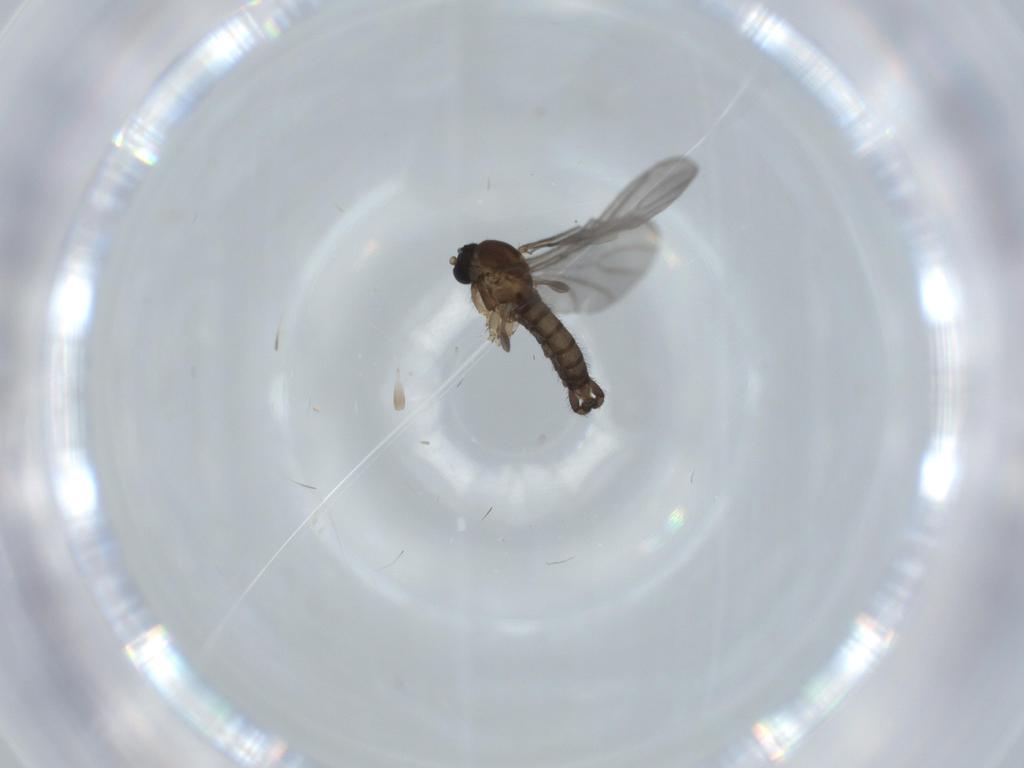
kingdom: Animalia
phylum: Arthropoda
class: Insecta
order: Diptera
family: Sciaridae
